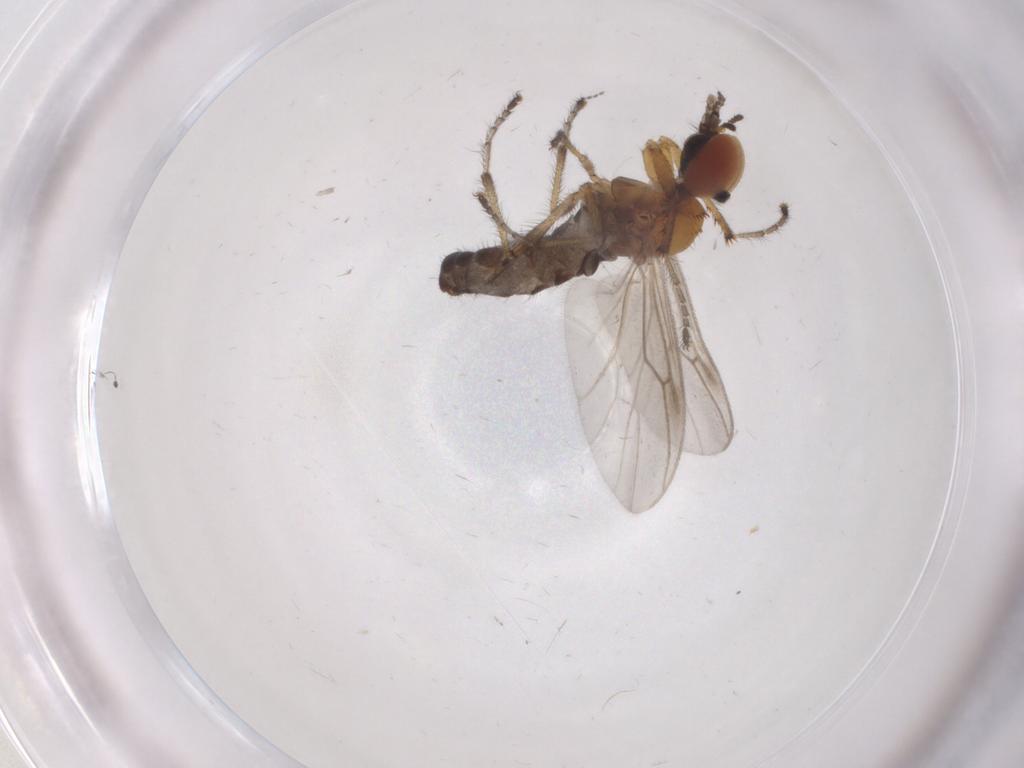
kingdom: Animalia
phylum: Arthropoda
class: Insecta
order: Diptera
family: Bibionidae
